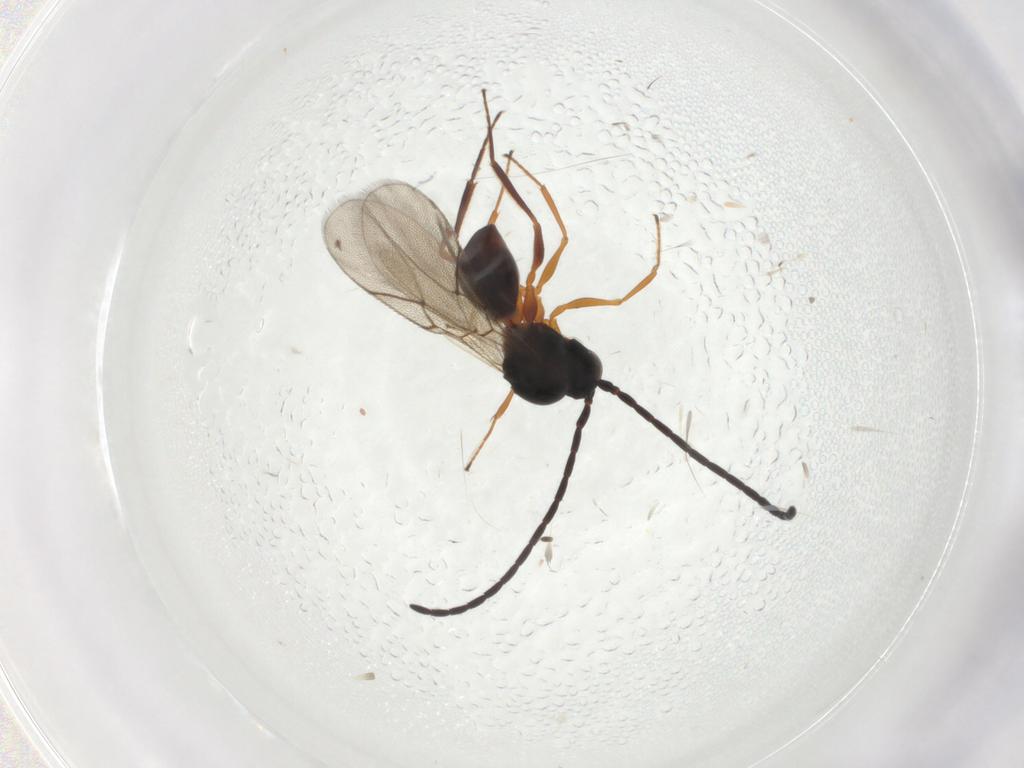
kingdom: Animalia
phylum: Arthropoda
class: Insecta
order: Hymenoptera
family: Figitidae
